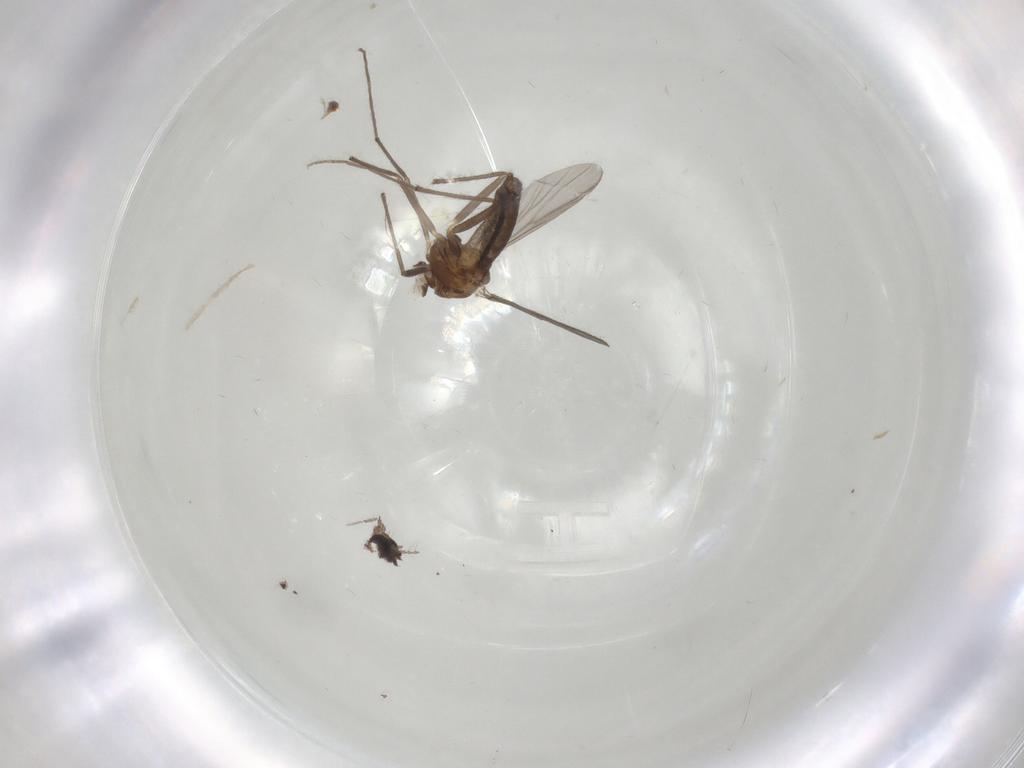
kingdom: Animalia
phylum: Arthropoda
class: Insecta
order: Diptera
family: Chironomidae
